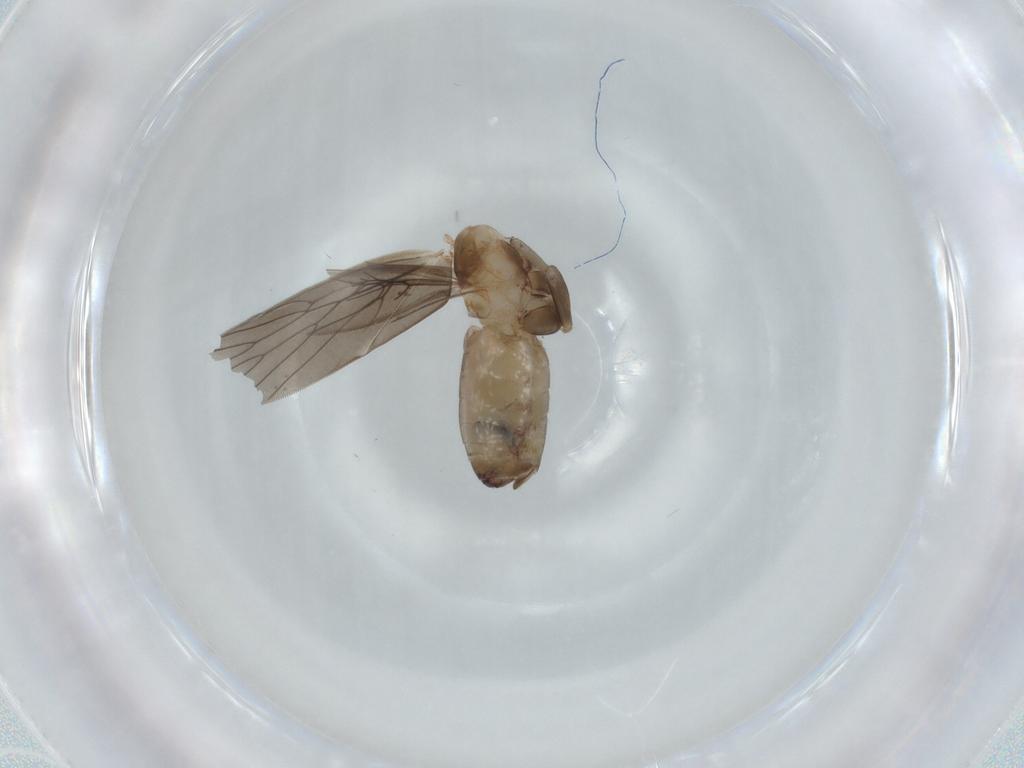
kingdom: Animalia
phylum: Arthropoda
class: Insecta
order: Psocodea
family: Lepidopsocidae
